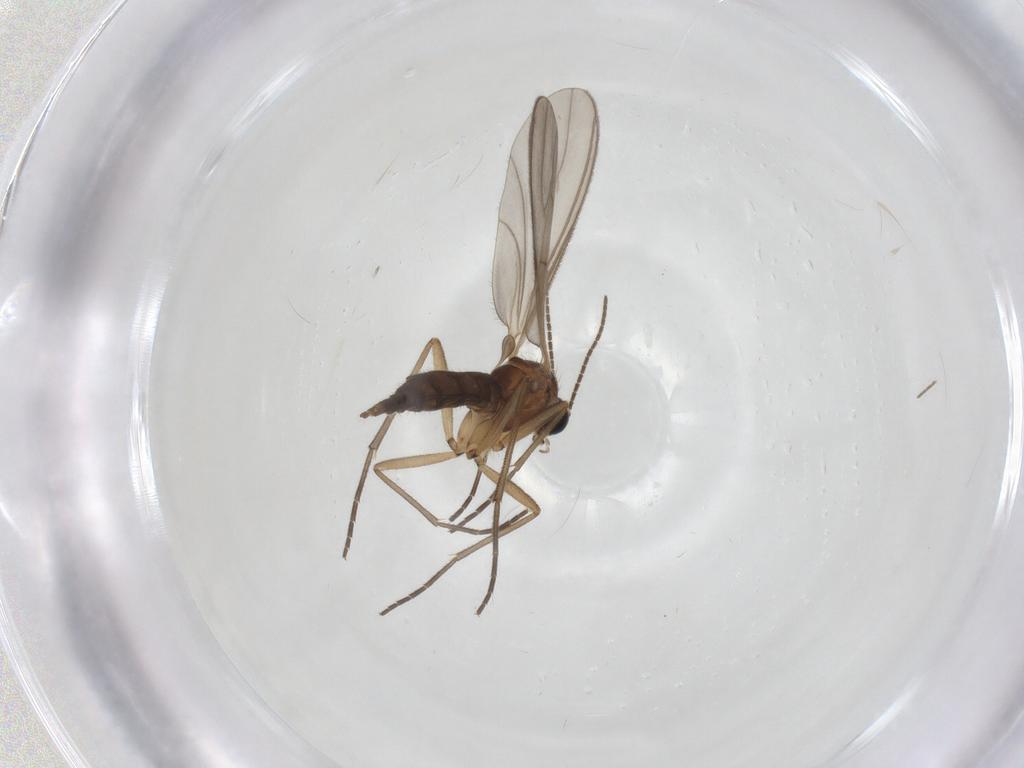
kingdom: Animalia
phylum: Arthropoda
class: Insecta
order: Diptera
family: Sciaridae
